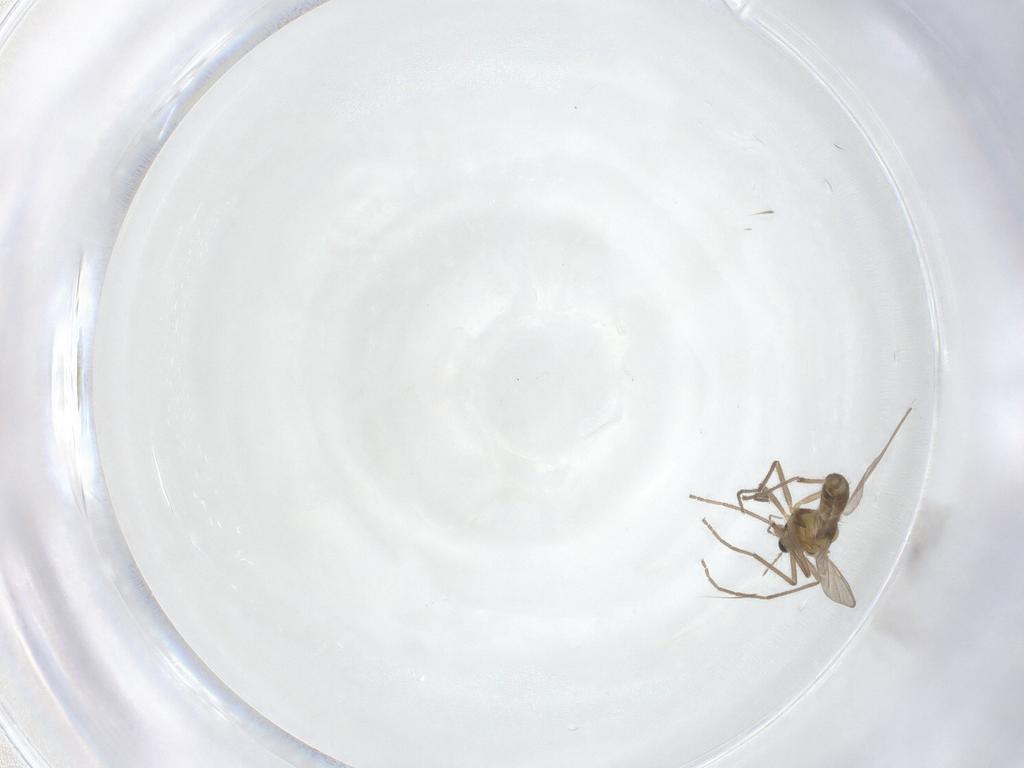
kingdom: Animalia
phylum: Arthropoda
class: Insecta
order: Diptera
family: Chironomidae
